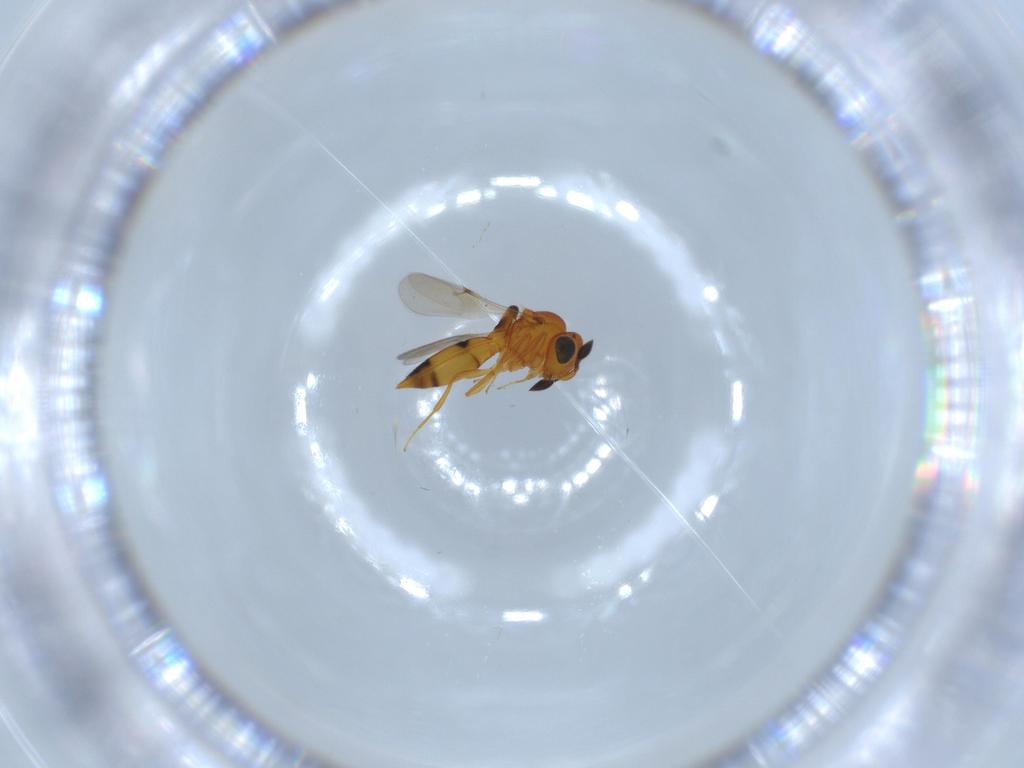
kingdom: Animalia
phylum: Arthropoda
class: Insecta
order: Hymenoptera
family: Scelionidae
